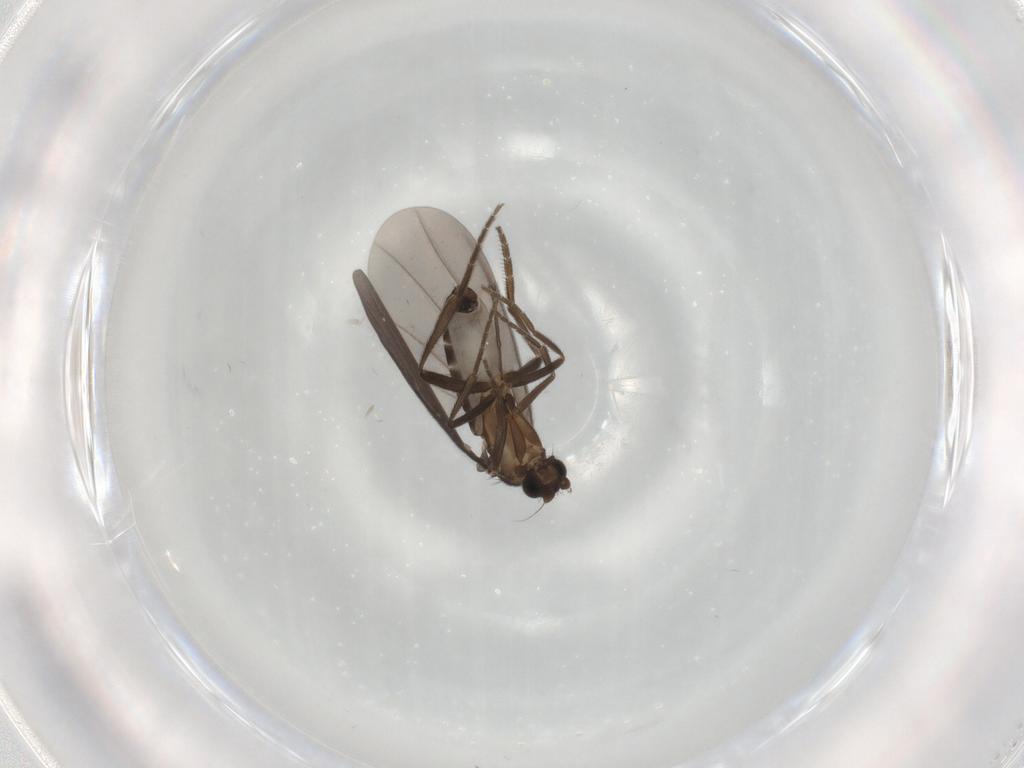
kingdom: Animalia
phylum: Arthropoda
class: Insecta
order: Diptera
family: Phoridae
